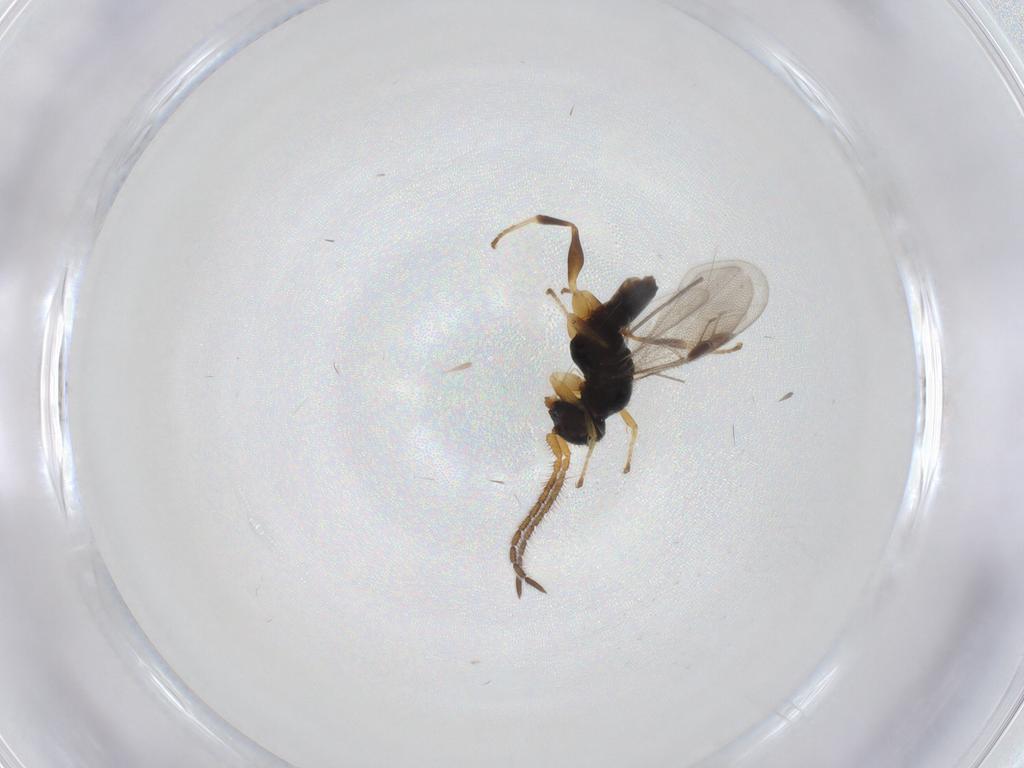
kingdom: Animalia
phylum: Arthropoda
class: Insecta
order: Hymenoptera
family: Dryinidae
